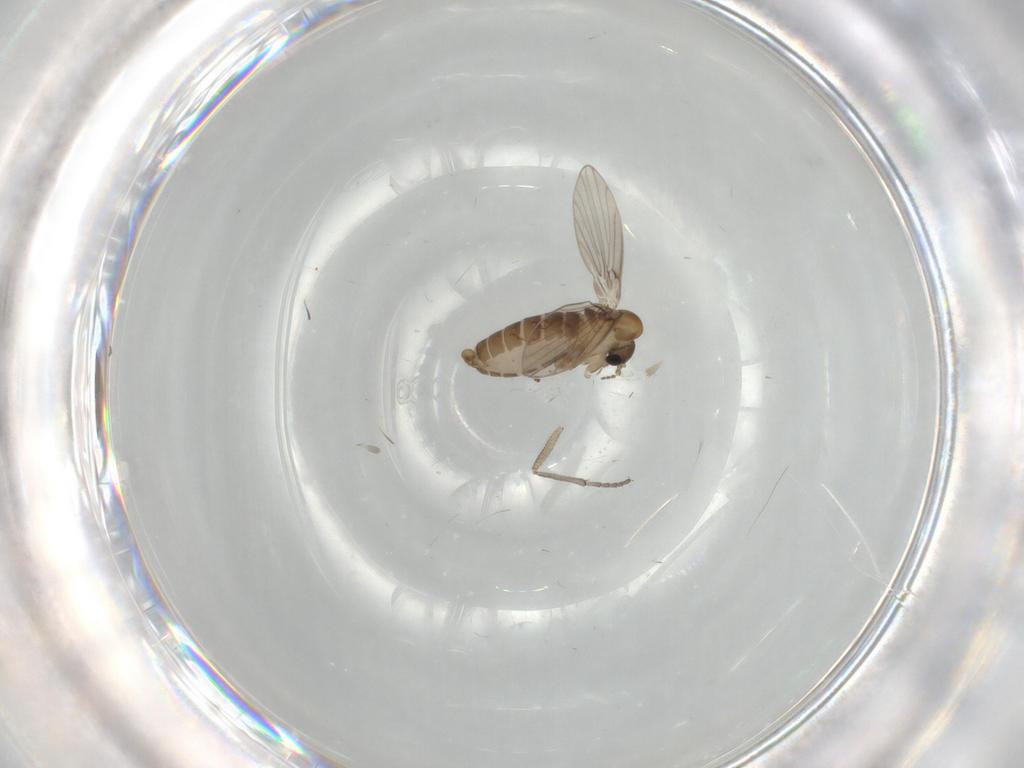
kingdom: Animalia
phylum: Arthropoda
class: Insecta
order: Diptera
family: Psychodidae
